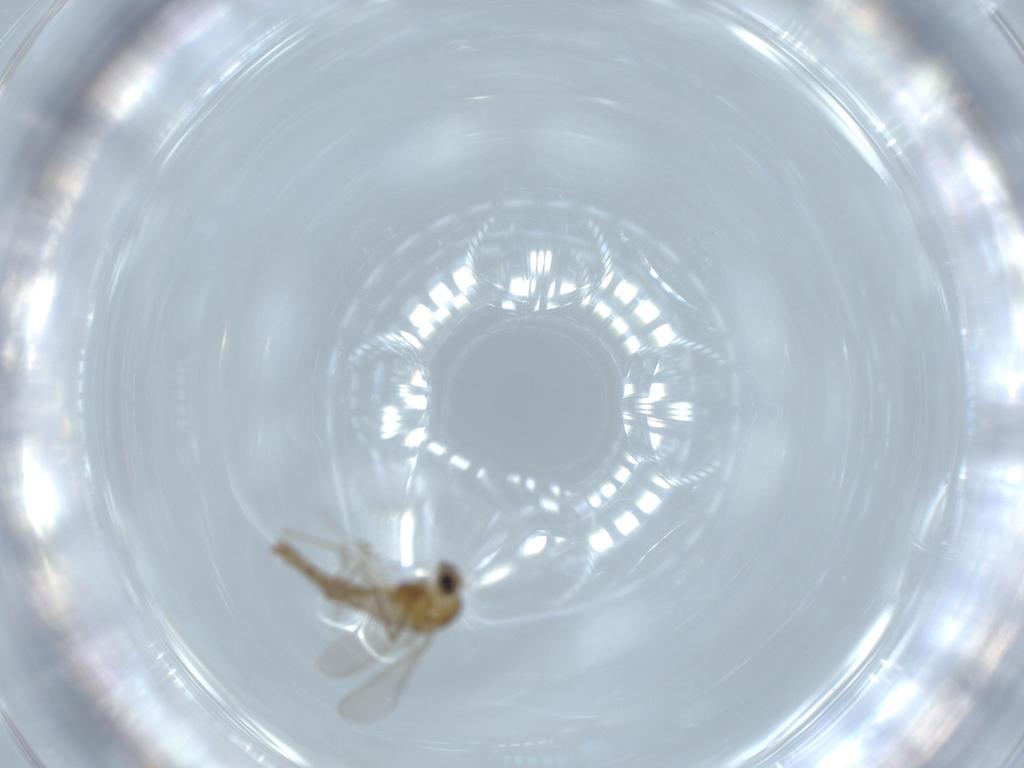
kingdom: Animalia
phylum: Arthropoda
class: Insecta
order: Diptera
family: Chironomidae
